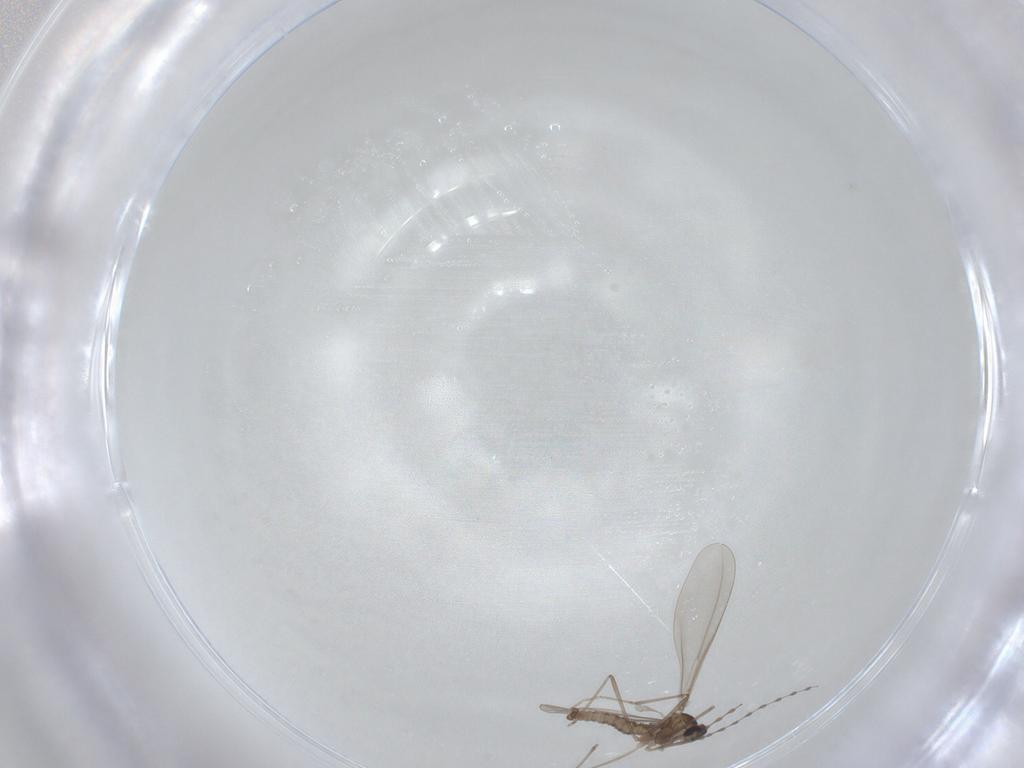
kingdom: Animalia
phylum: Arthropoda
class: Insecta
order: Diptera
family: Cecidomyiidae
